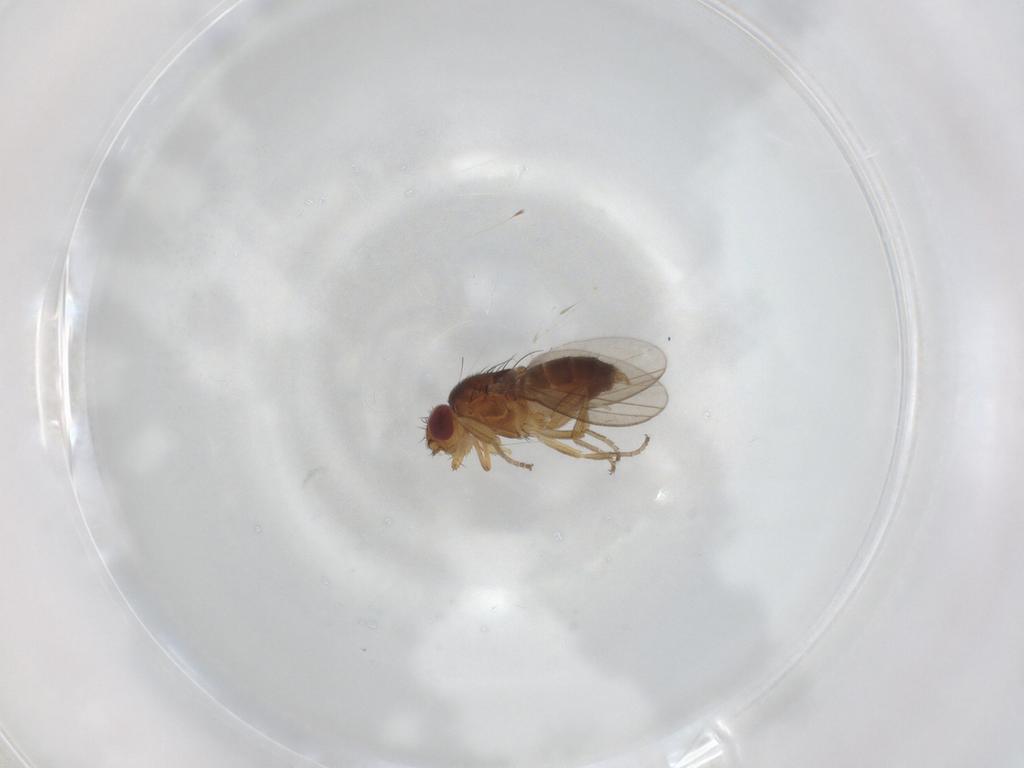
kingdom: Animalia
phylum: Arthropoda
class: Insecta
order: Diptera
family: Milichiidae
